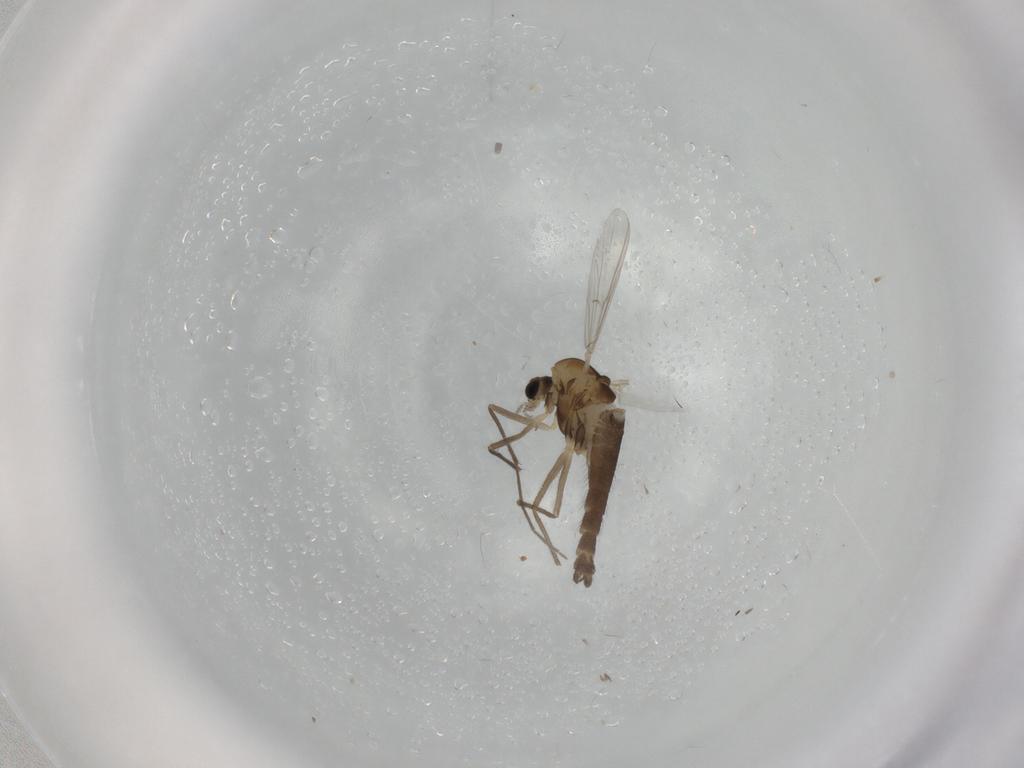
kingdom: Animalia
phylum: Arthropoda
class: Insecta
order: Diptera
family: Chironomidae
